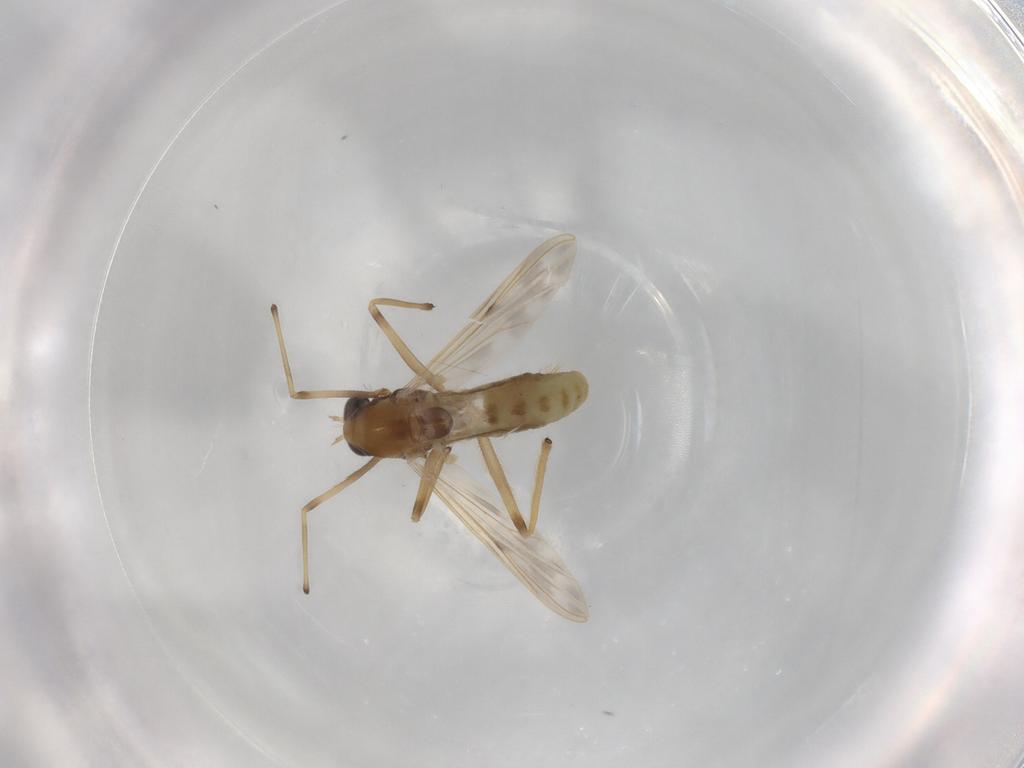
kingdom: Animalia
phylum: Arthropoda
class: Insecta
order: Diptera
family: Chironomidae
